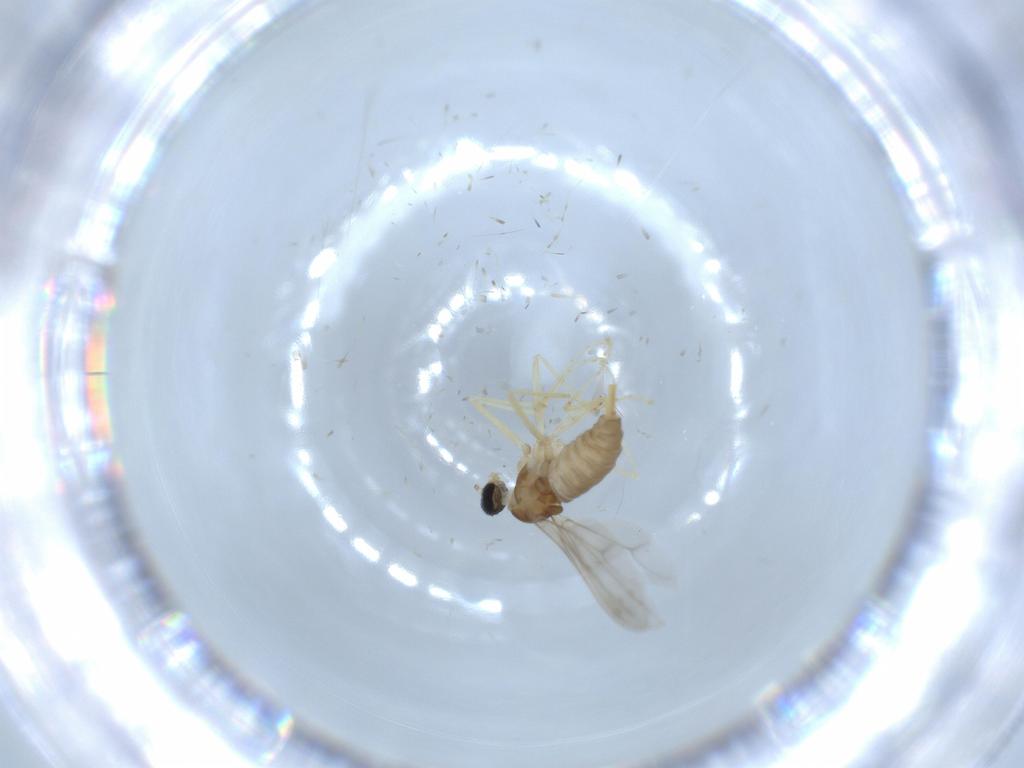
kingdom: Animalia
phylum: Arthropoda
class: Insecta
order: Diptera
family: Cecidomyiidae
